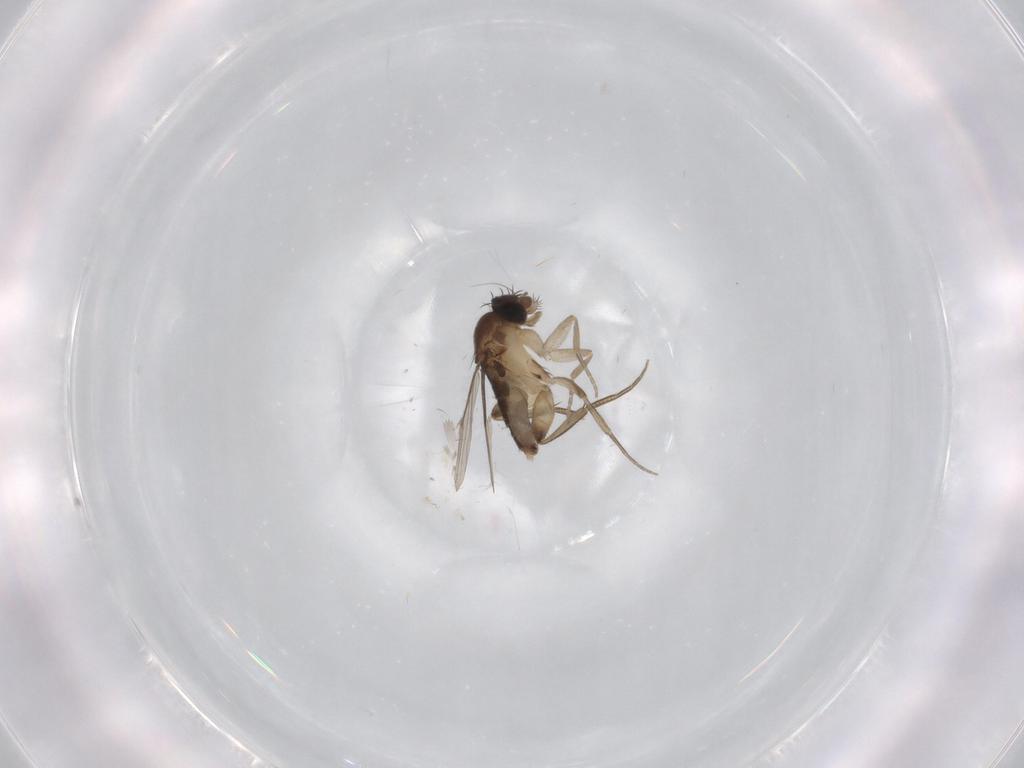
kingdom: Animalia
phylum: Arthropoda
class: Insecta
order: Diptera
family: Phoridae
